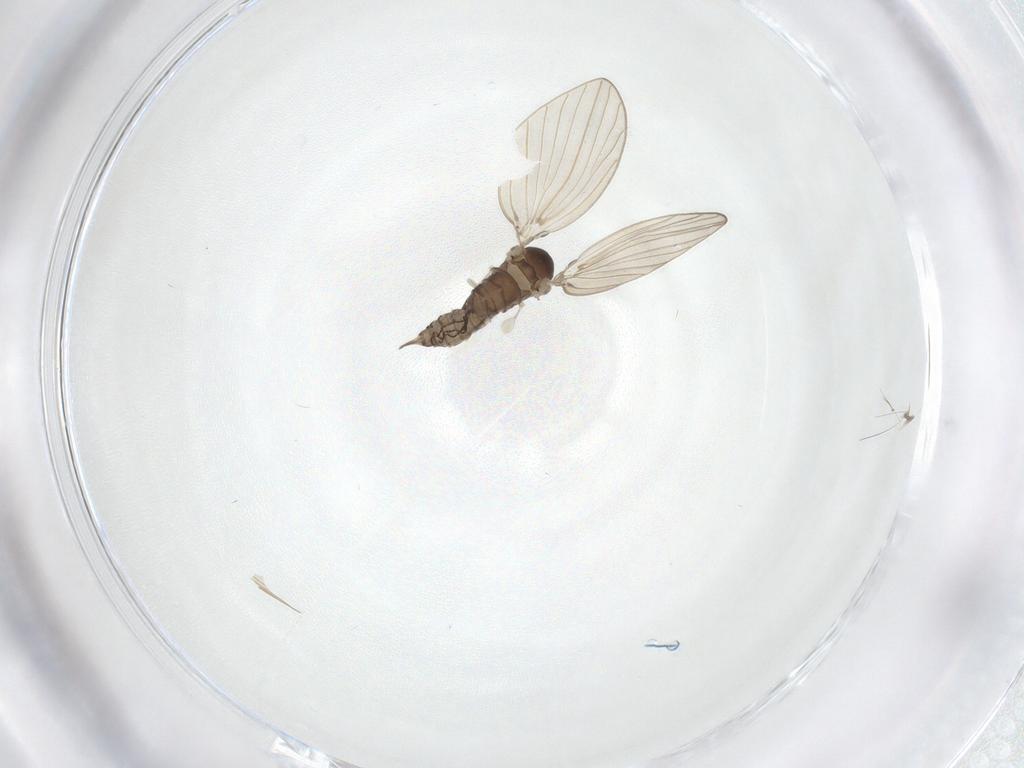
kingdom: Animalia
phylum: Arthropoda
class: Insecta
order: Diptera
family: Psychodidae
